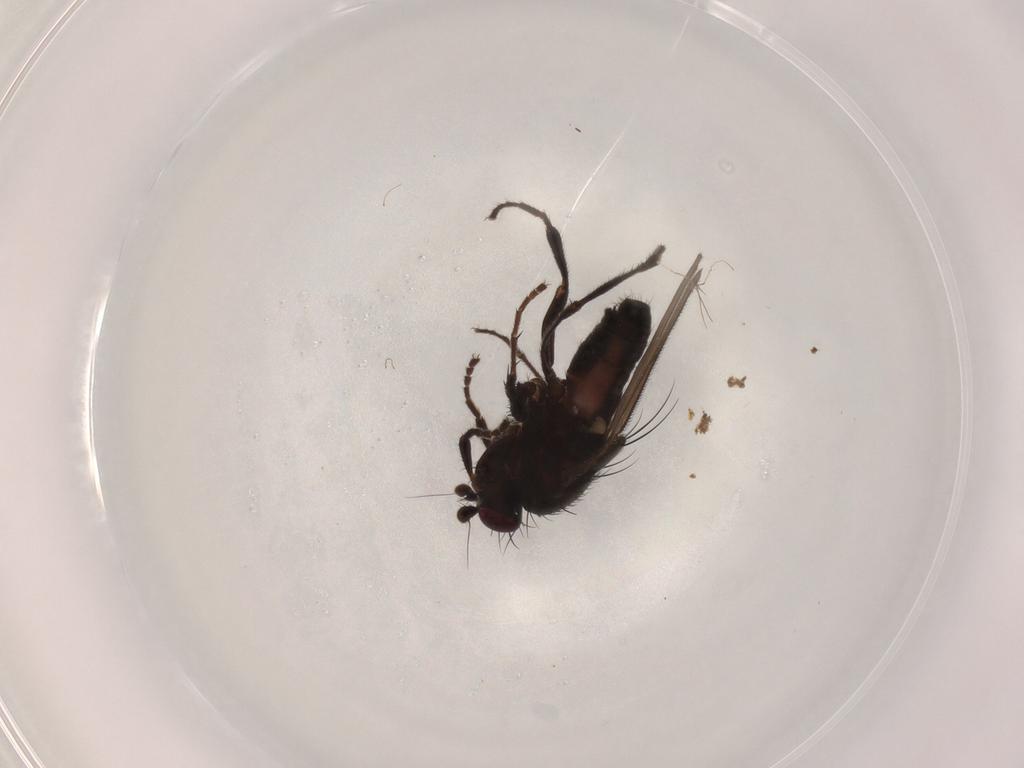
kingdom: Animalia
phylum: Arthropoda
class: Insecta
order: Diptera
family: Sphaeroceridae
